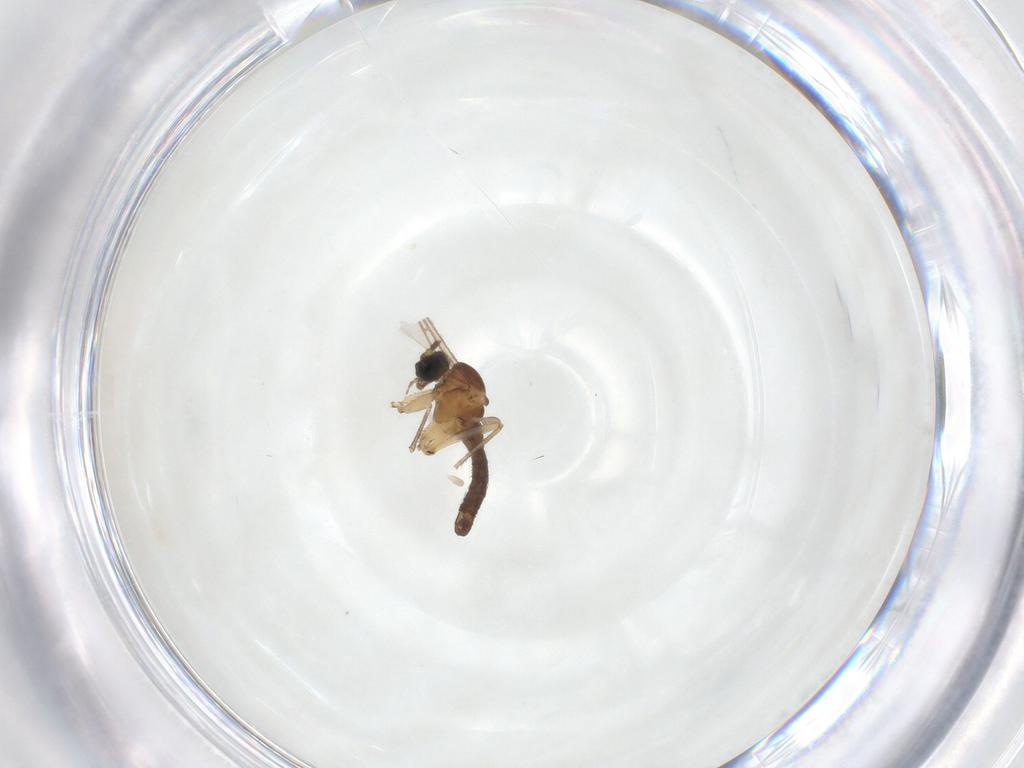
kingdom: Animalia
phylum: Arthropoda
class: Insecta
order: Diptera
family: Sciaridae
